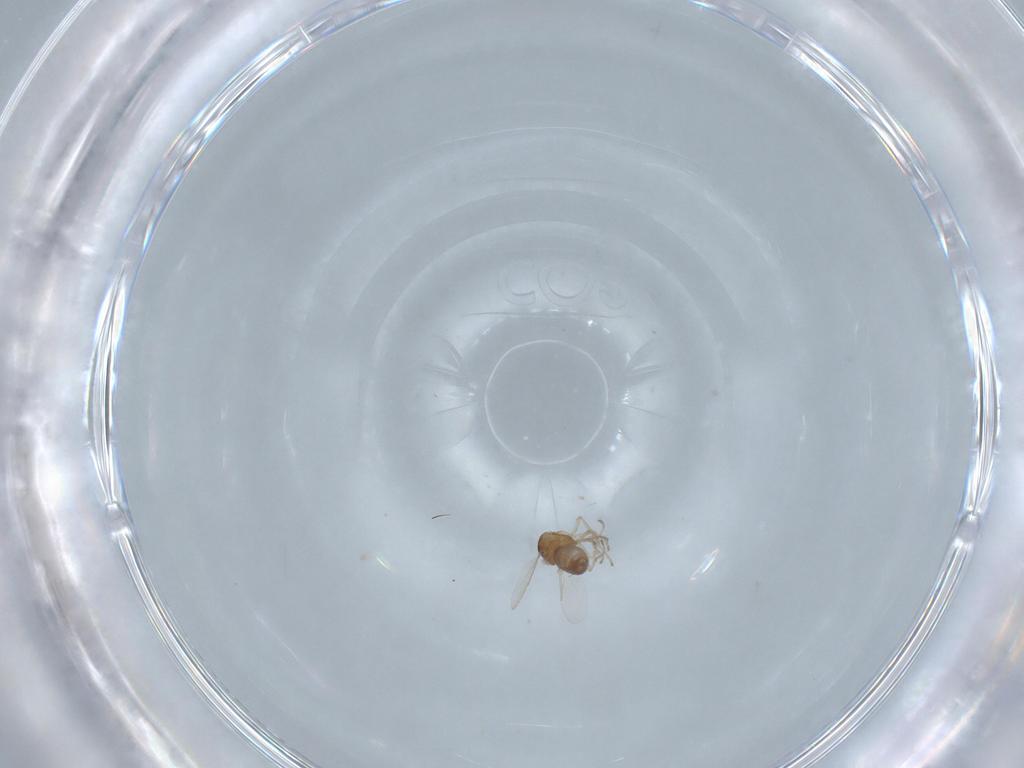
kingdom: Animalia
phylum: Arthropoda
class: Insecta
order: Diptera
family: Ceratopogonidae
